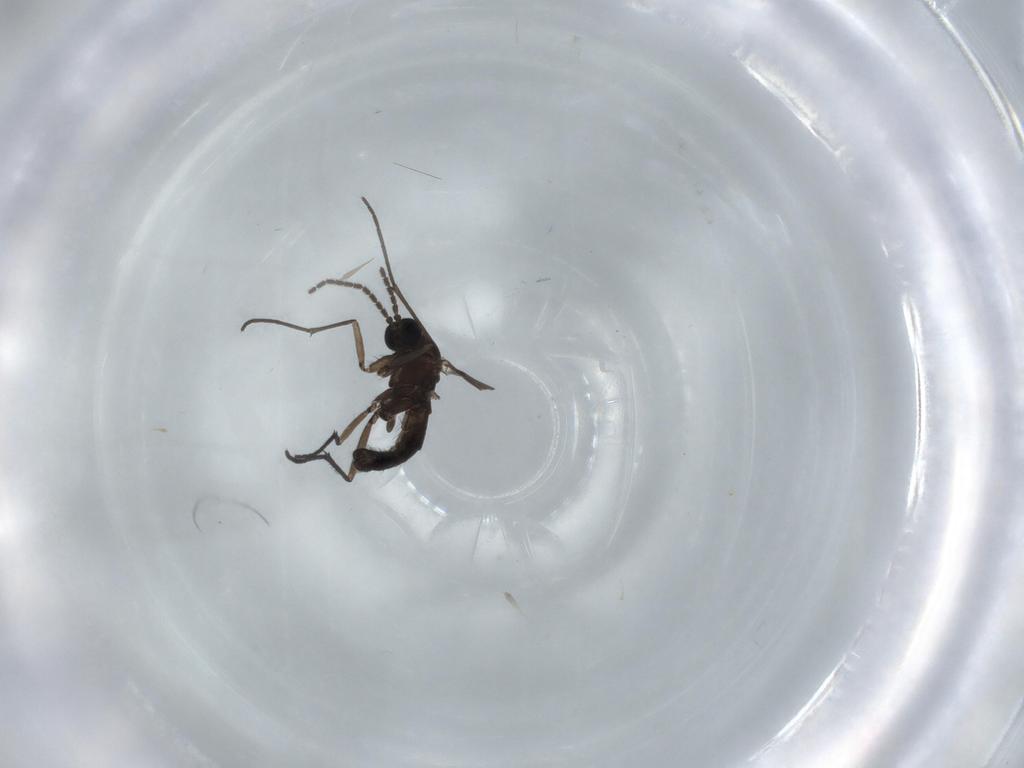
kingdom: Animalia
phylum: Arthropoda
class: Insecta
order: Diptera
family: Sciaridae
